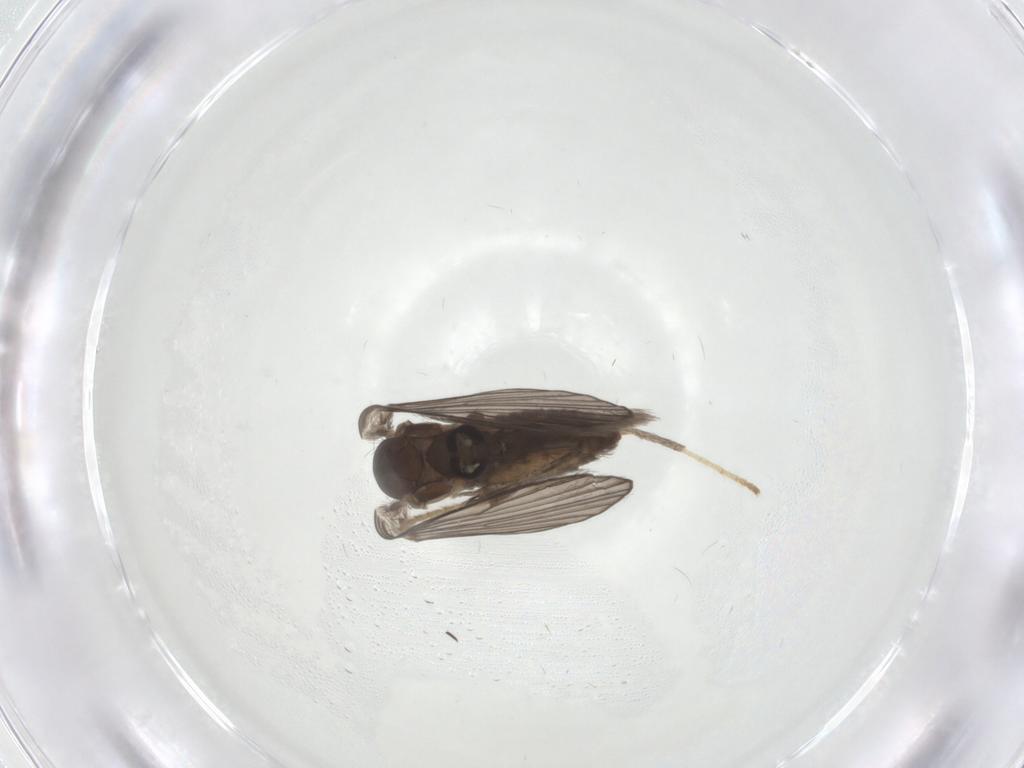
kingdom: Animalia
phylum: Arthropoda
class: Insecta
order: Diptera
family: Psychodidae
